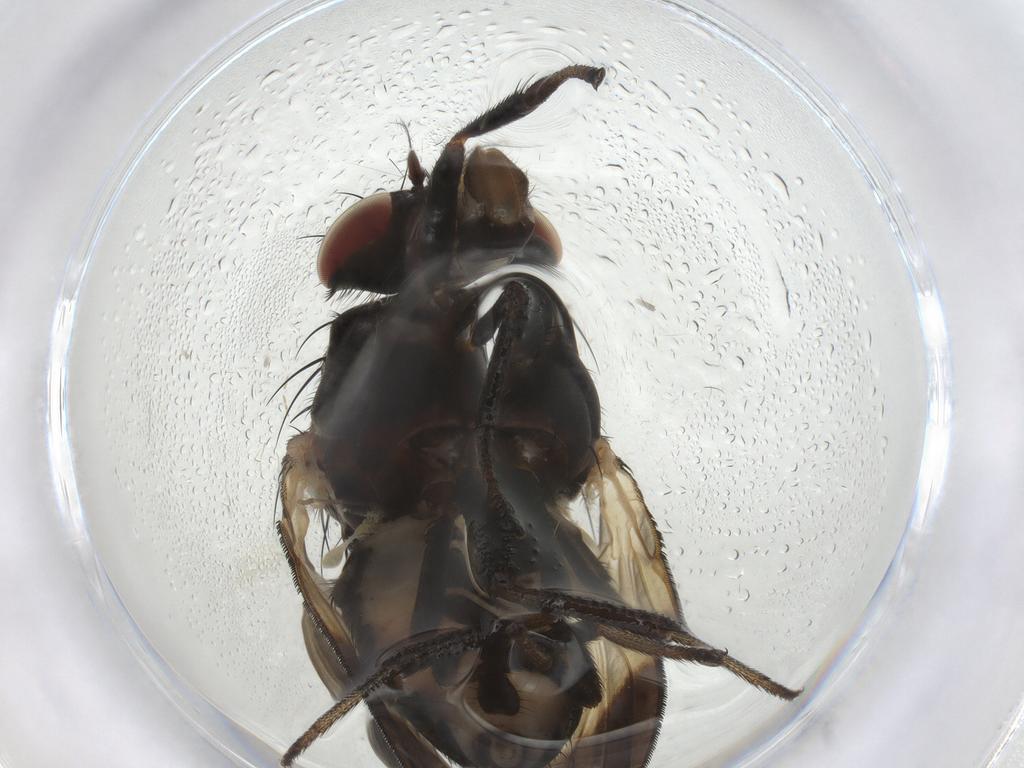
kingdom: Animalia
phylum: Arthropoda
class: Insecta
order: Diptera
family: Lauxaniidae
